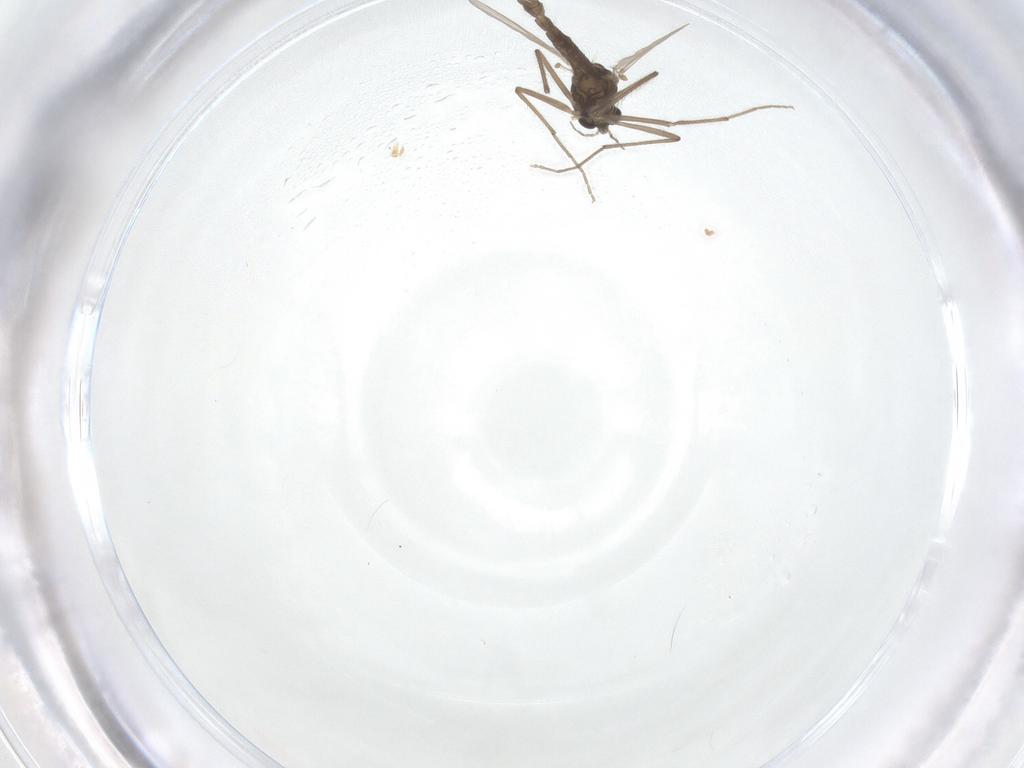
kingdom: Animalia
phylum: Arthropoda
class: Insecta
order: Diptera
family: Chironomidae
